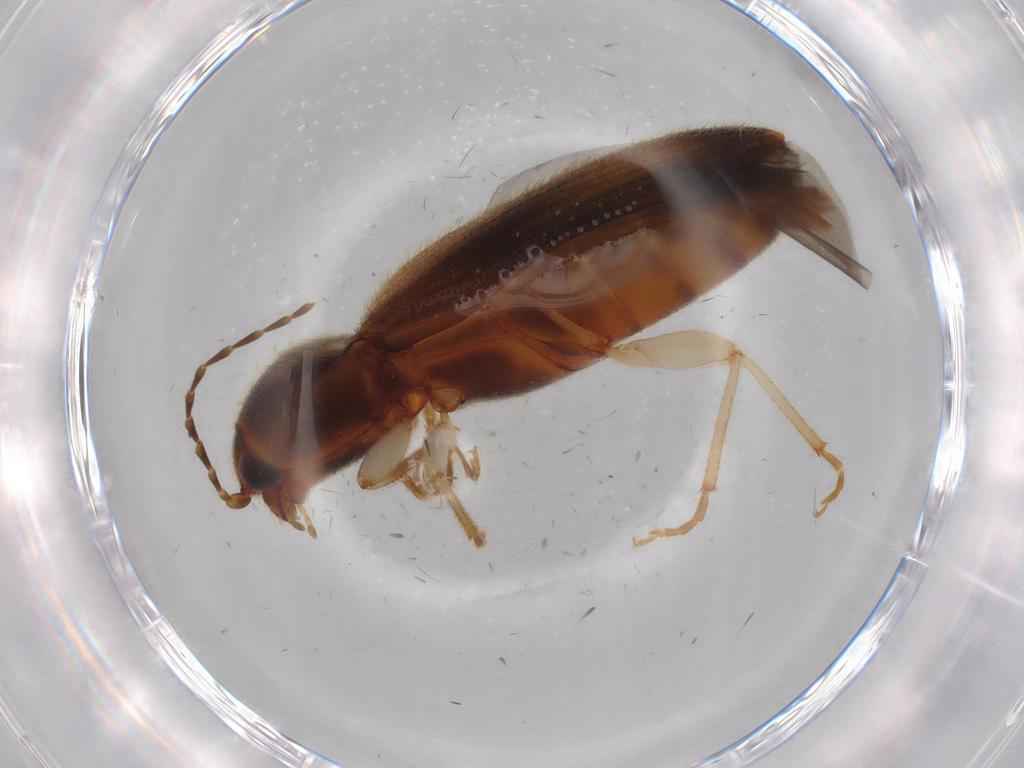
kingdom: Animalia
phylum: Arthropoda
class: Insecta
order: Coleoptera
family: Elateridae
